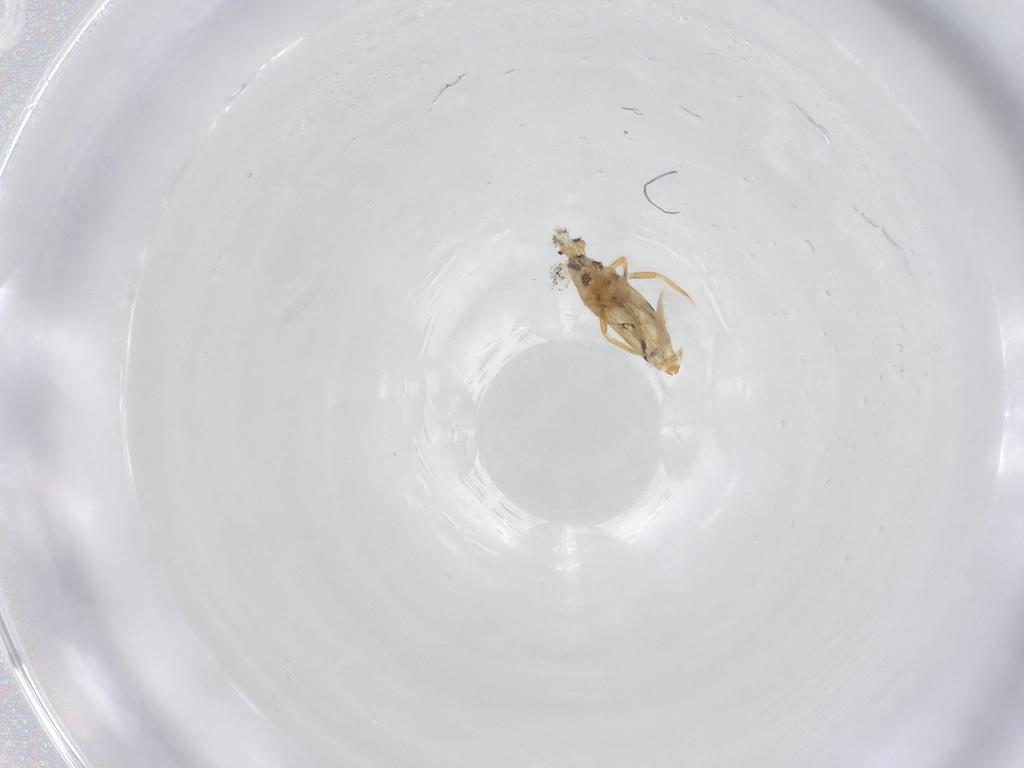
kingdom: Animalia
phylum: Arthropoda
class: Collembola
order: Entomobryomorpha
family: Entomobryidae
